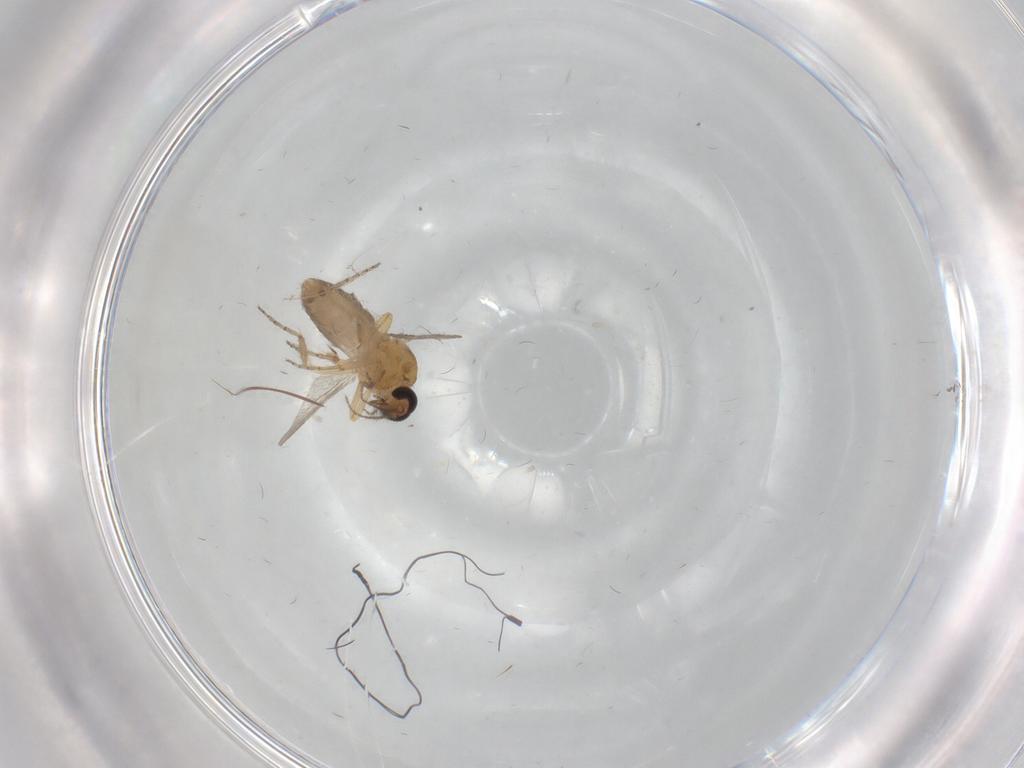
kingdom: Animalia
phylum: Arthropoda
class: Insecta
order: Diptera
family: Ceratopogonidae
